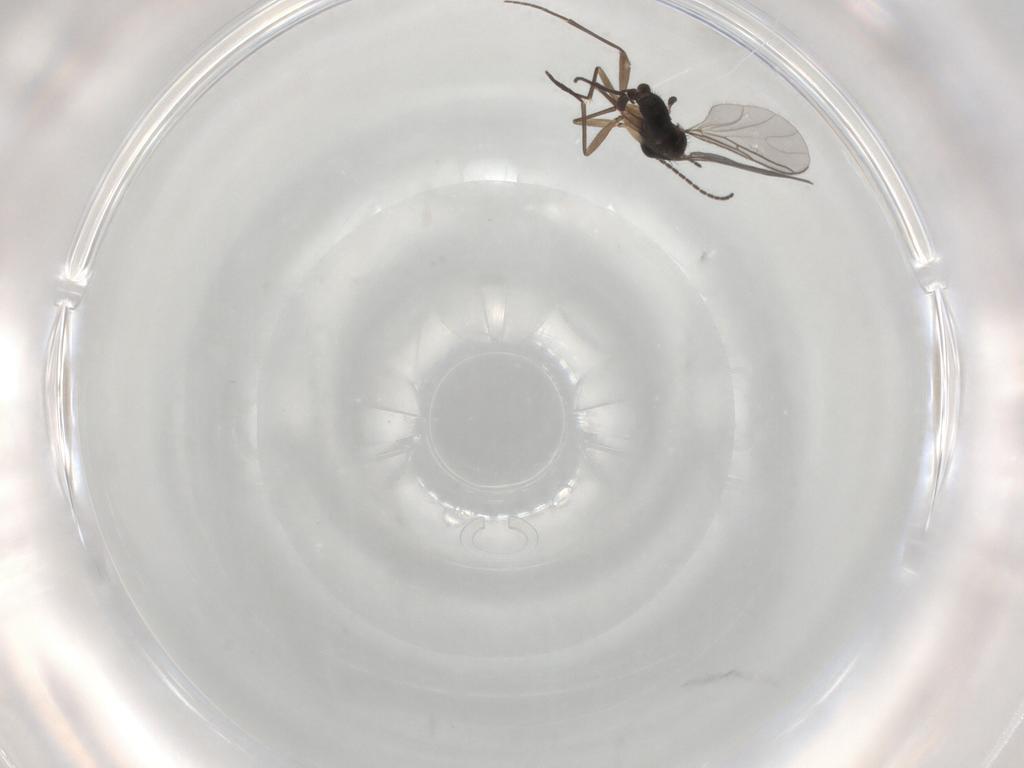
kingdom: Animalia
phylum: Arthropoda
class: Insecta
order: Diptera
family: Sciaridae
